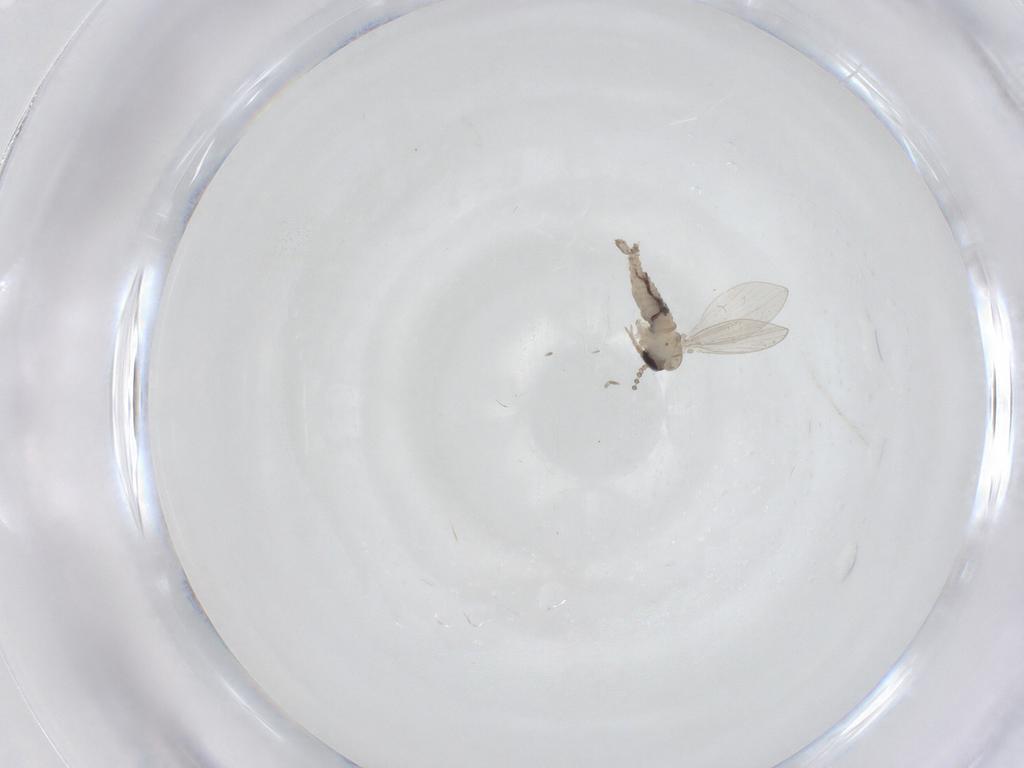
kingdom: Animalia
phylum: Arthropoda
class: Insecta
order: Diptera
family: Psychodidae
